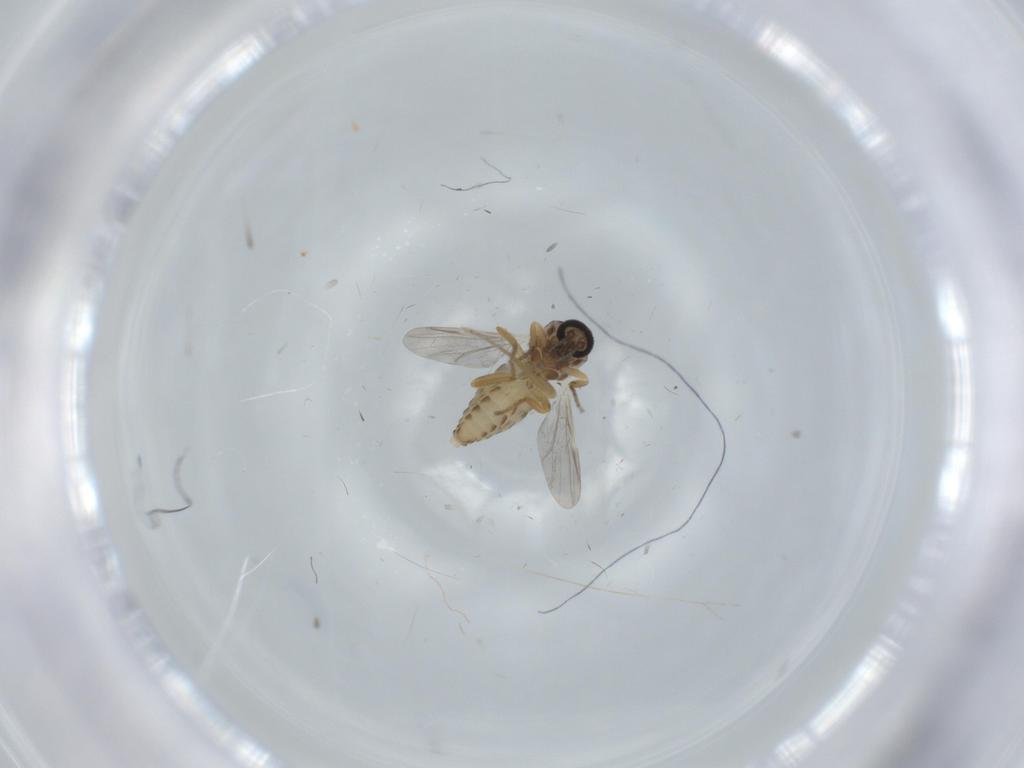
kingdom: Animalia
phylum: Arthropoda
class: Insecta
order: Diptera
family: Ceratopogonidae
